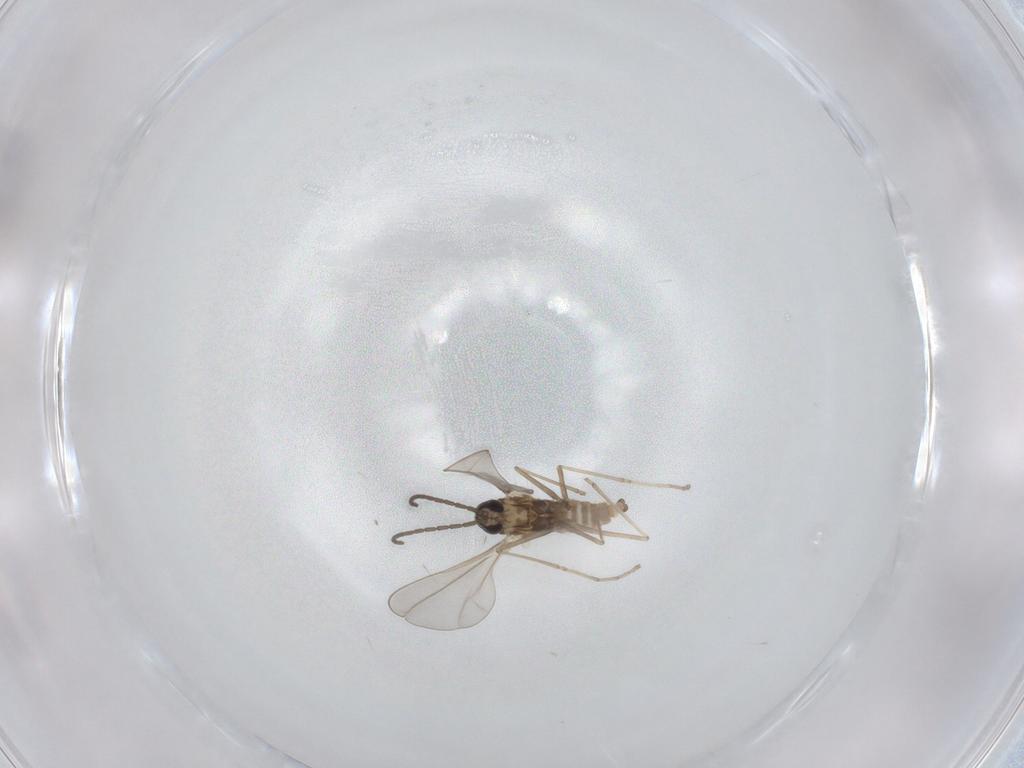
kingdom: Animalia
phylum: Arthropoda
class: Insecta
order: Diptera
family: Cecidomyiidae
